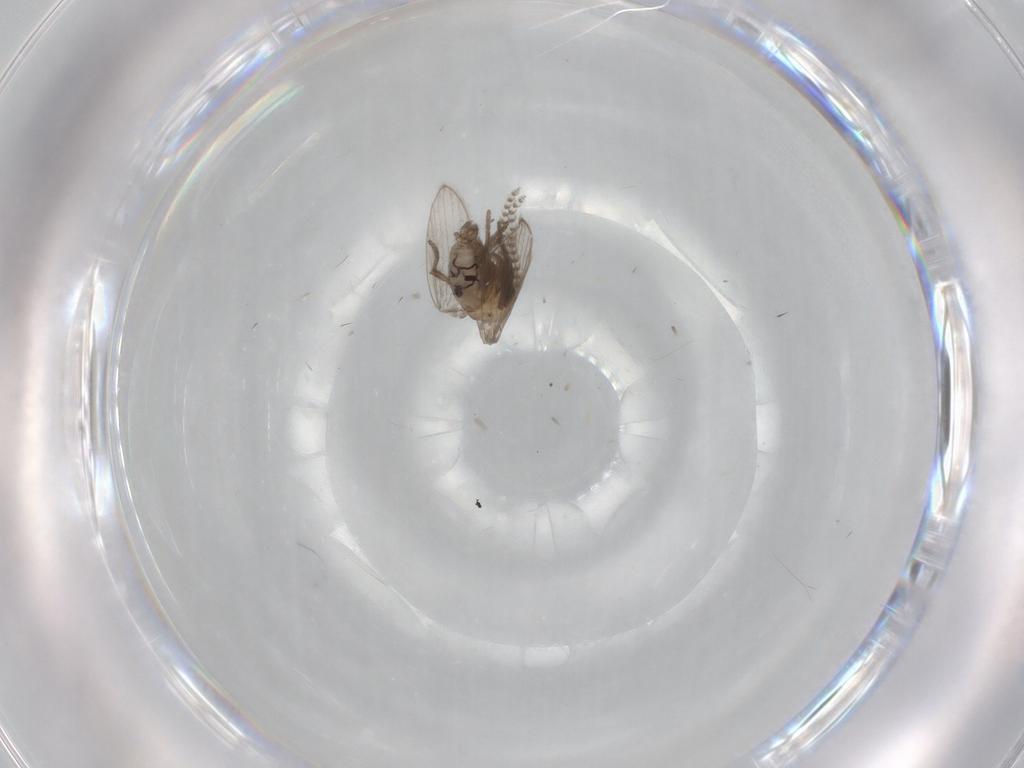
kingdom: Animalia
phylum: Arthropoda
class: Insecta
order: Diptera
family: Psychodidae
